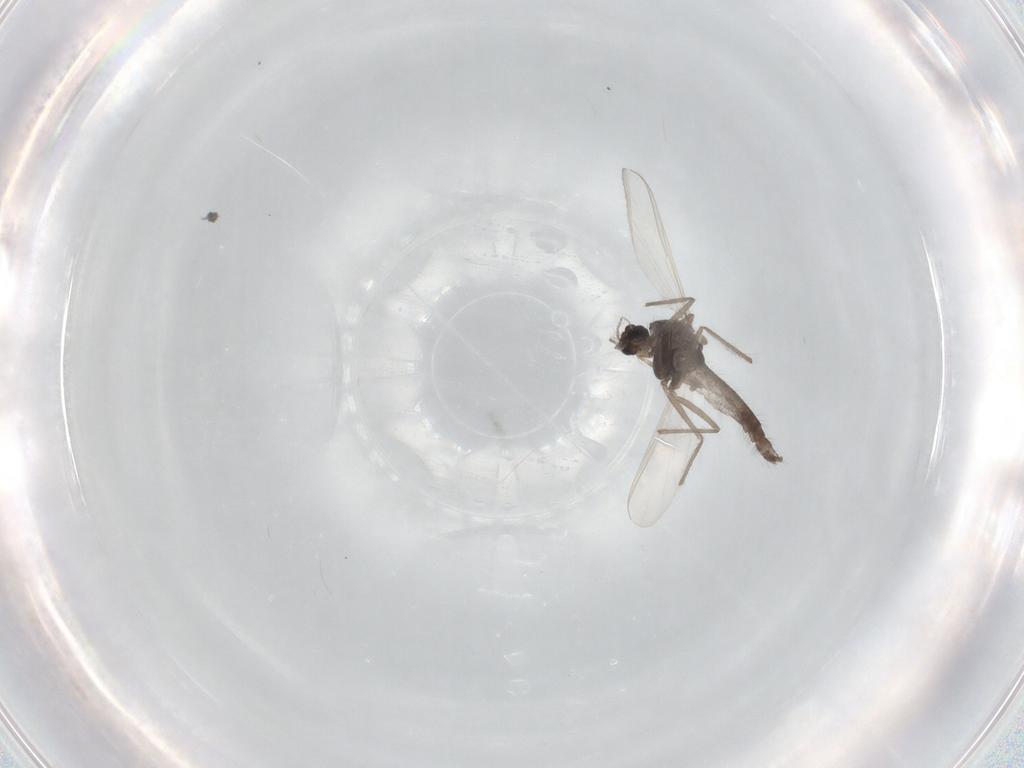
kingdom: Animalia
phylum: Arthropoda
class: Insecta
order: Diptera
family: Chironomidae
